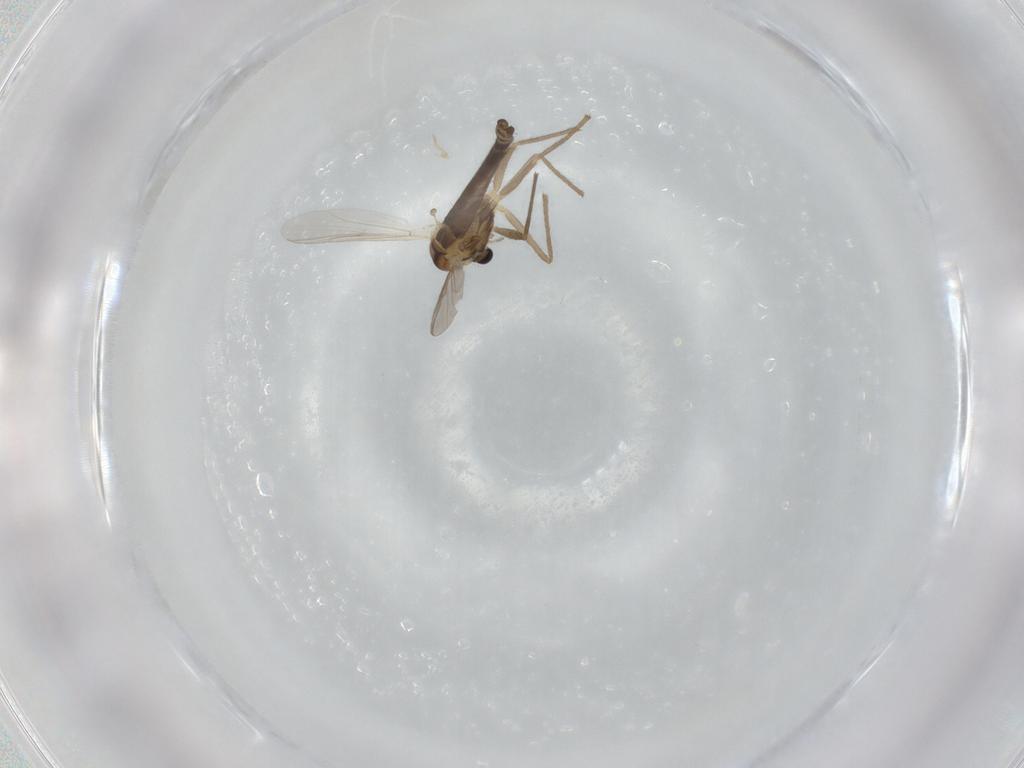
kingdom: Animalia
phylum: Arthropoda
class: Insecta
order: Diptera
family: Chironomidae
